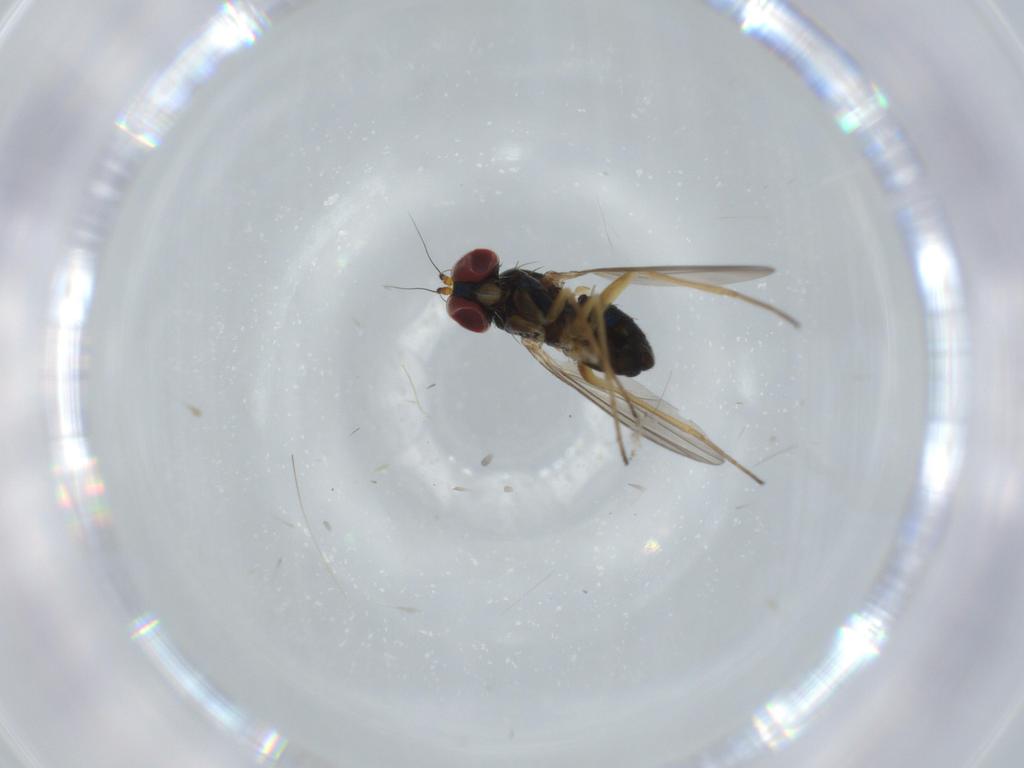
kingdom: Animalia
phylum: Arthropoda
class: Insecta
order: Diptera
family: Dolichopodidae
